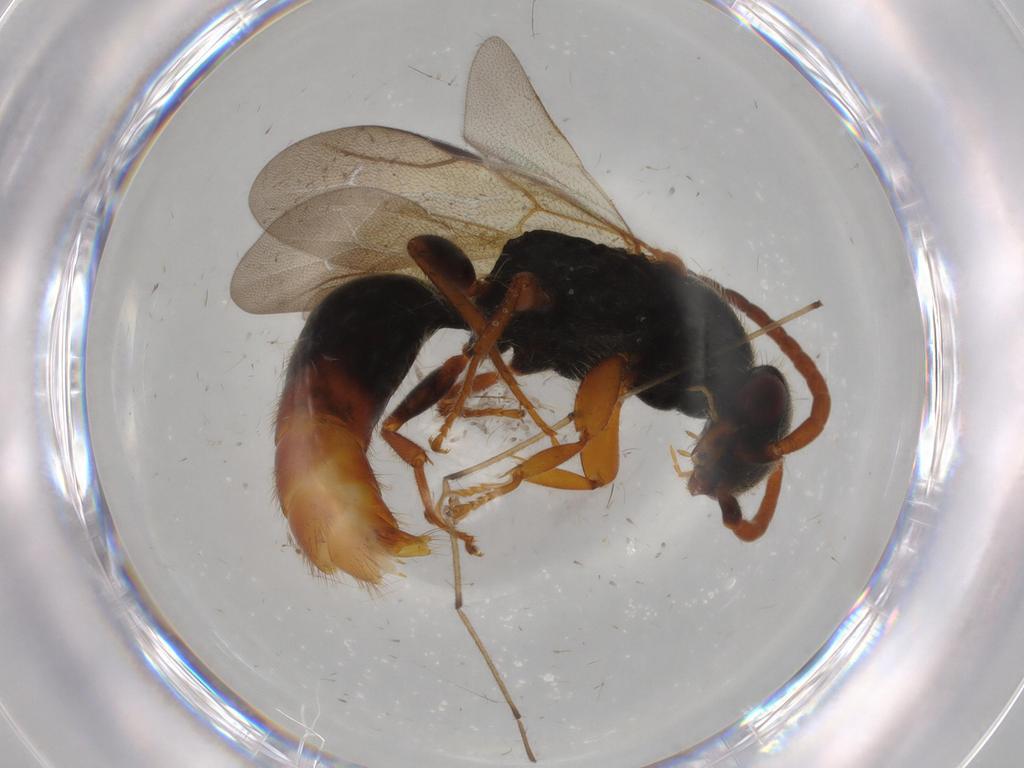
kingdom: Animalia
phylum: Arthropoda
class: Insecta
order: Hymenoptera
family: Bethylidae
